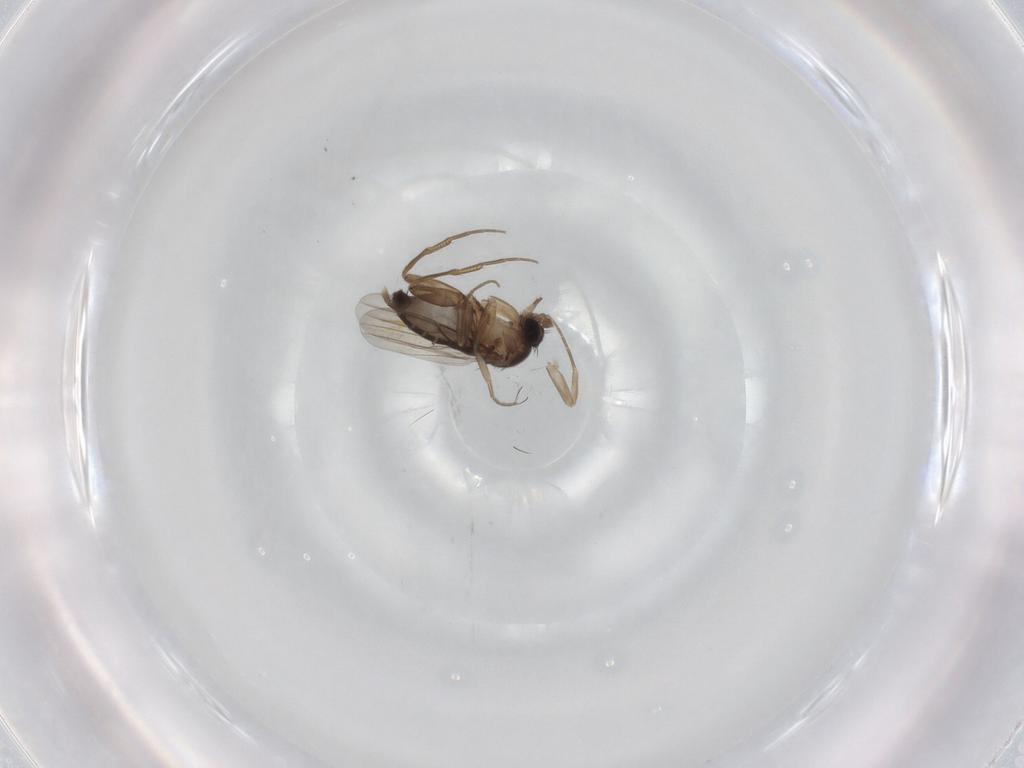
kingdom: Animalia
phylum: Arthropoda
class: Insecta
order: Diptera
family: Phoridae
